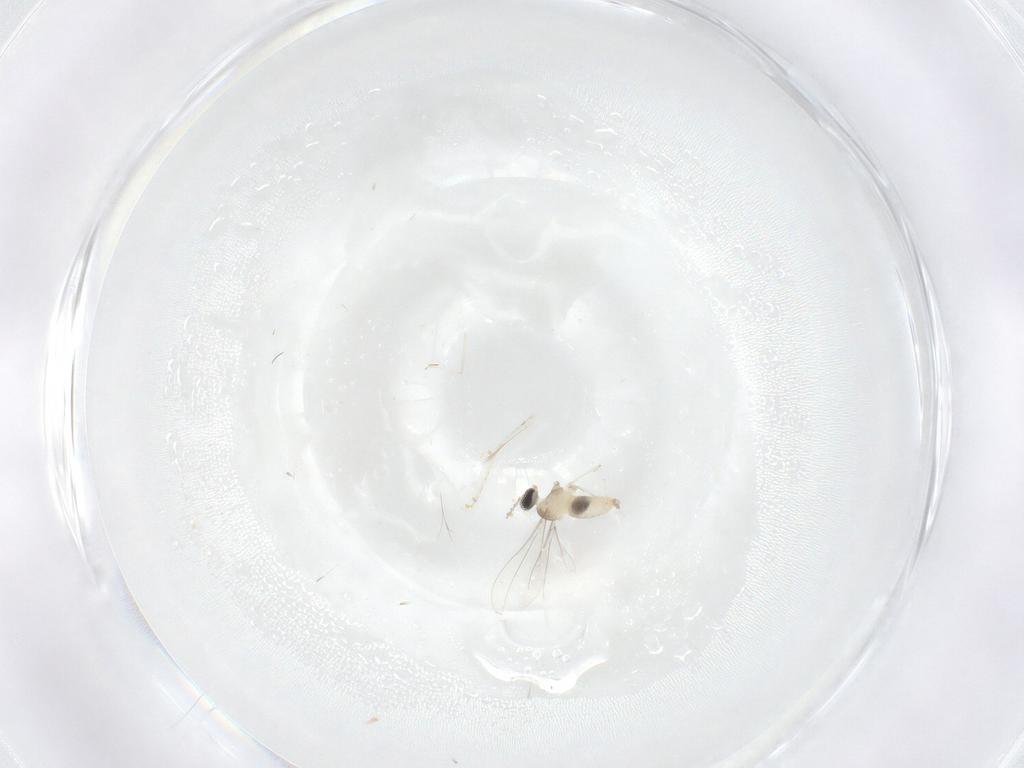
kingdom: Animalia
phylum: Arthropoda
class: Insecta
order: Diptera
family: Cecidomyiidae
